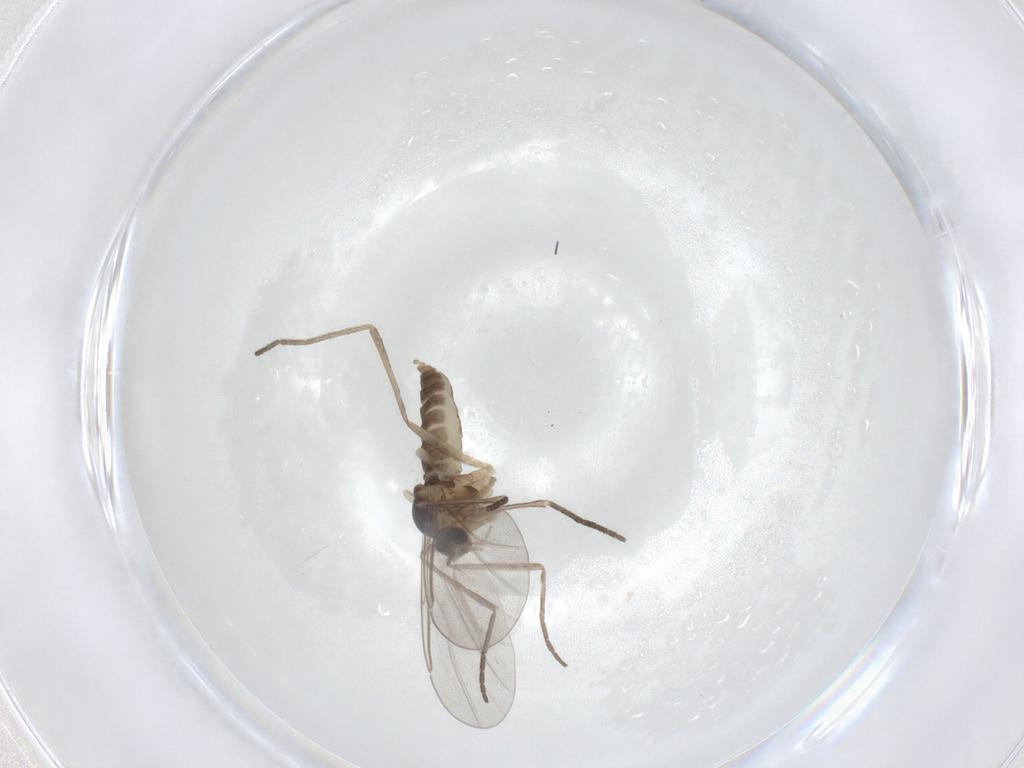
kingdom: Animalia
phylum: Arthropoda
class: Insecta
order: Diptera
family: Cecidomyiidae
